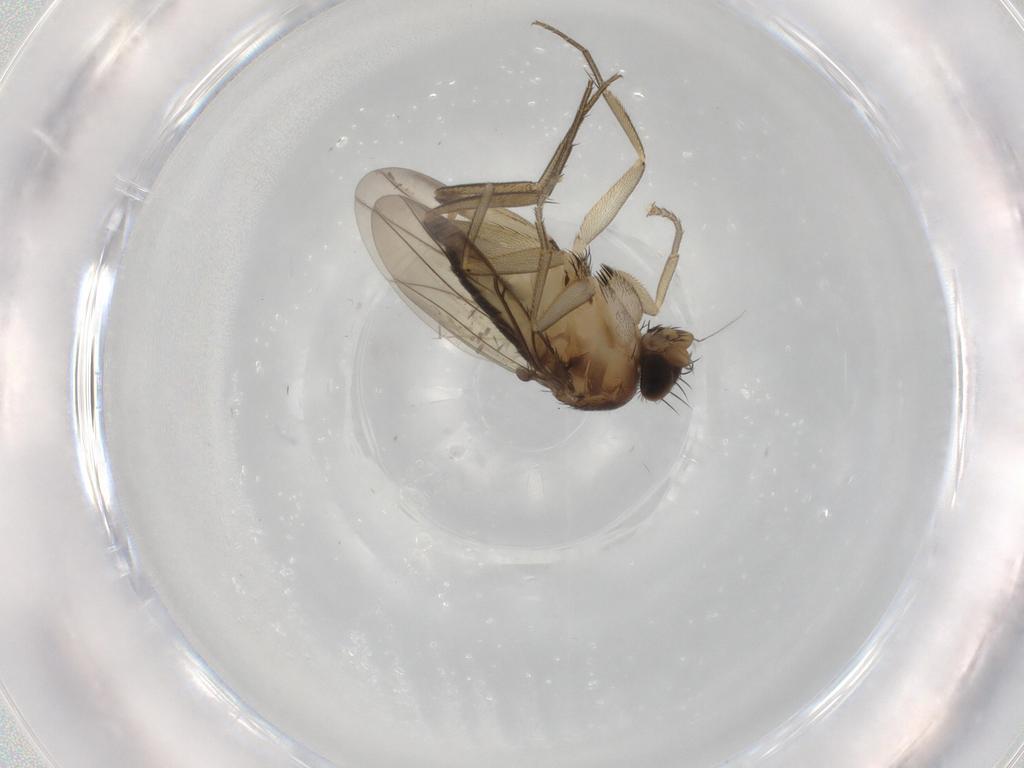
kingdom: Animalia
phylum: Arthropoda
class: Insecta
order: Diptera
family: Phoridae
